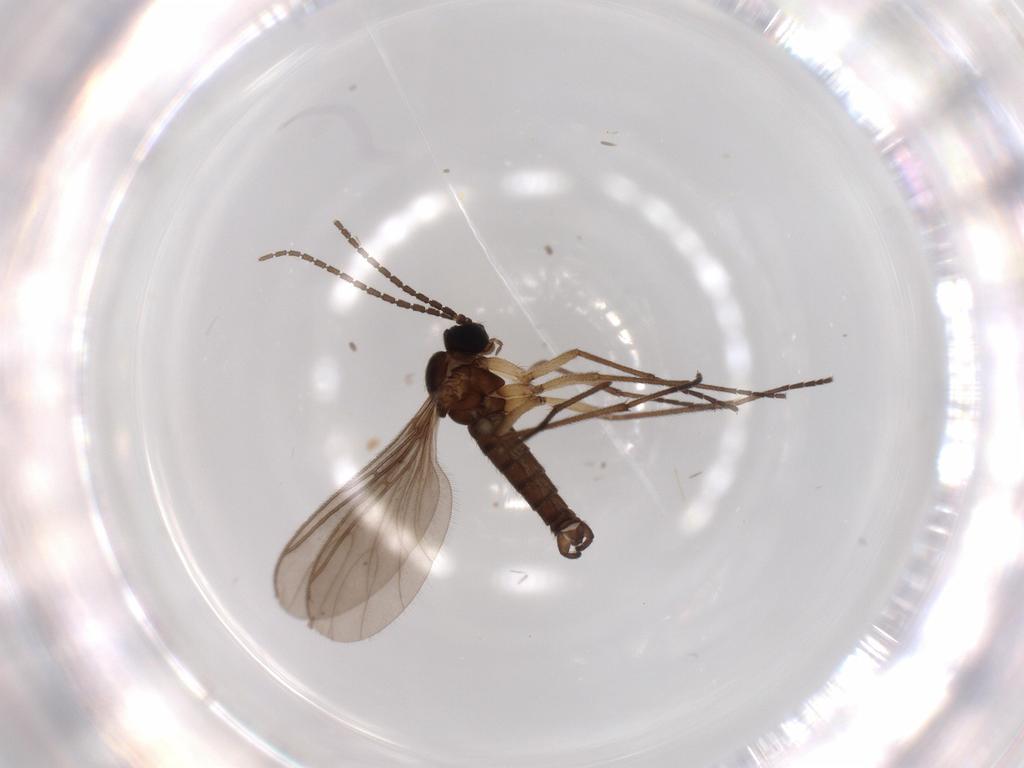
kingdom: Animalia
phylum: Arthropoda
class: Insecta
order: Diptera
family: Sciaridae
